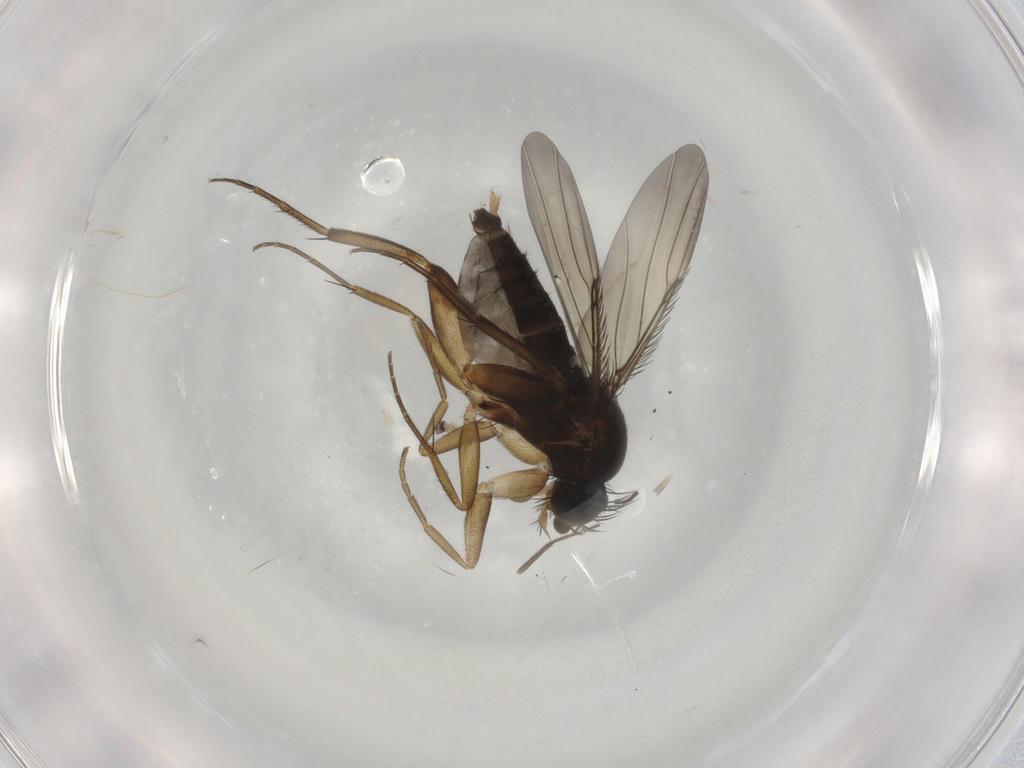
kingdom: Animalia
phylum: Arthropoda
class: Insecta
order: Diptera
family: Phoridae
